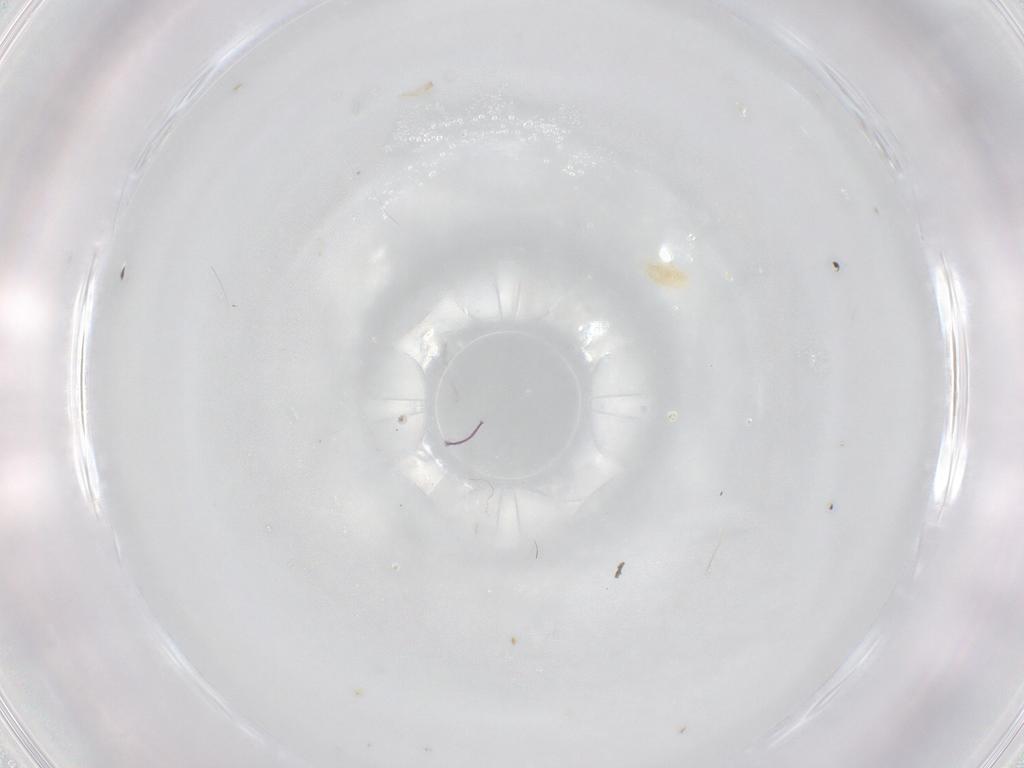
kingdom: Animalia
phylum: Arthropoda
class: Arachnida
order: Trombidiformes
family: Eupodidae
